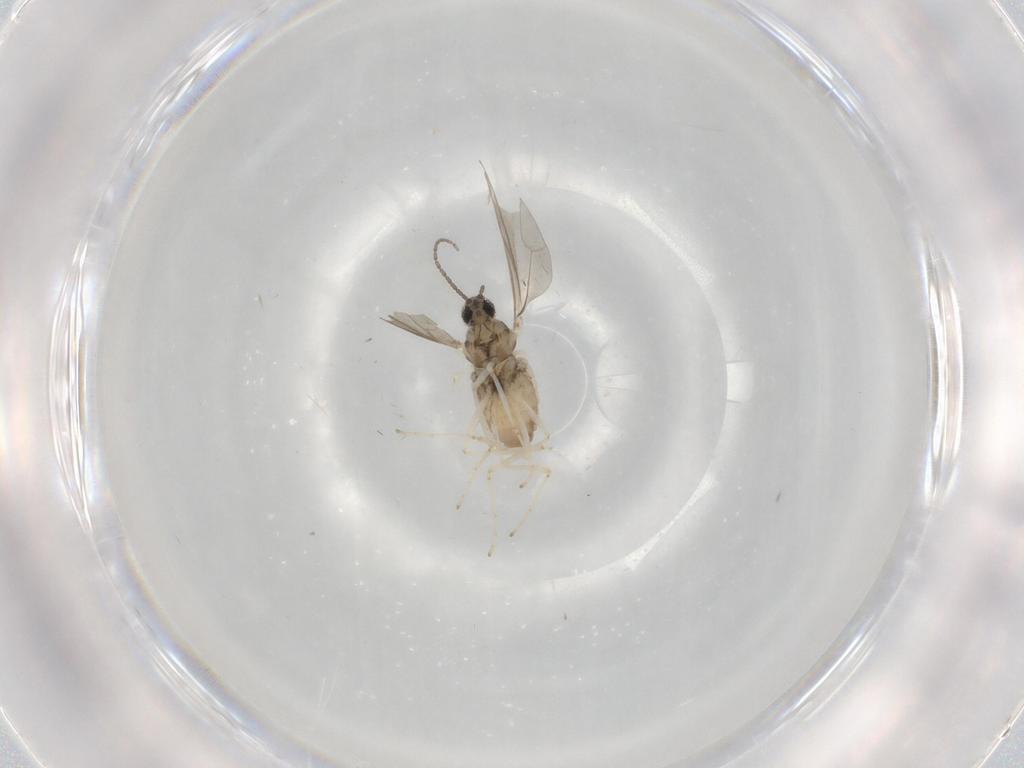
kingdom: Animalia
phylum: Arthropoda
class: Insecta
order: Diptera
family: Cecidomyiidae
